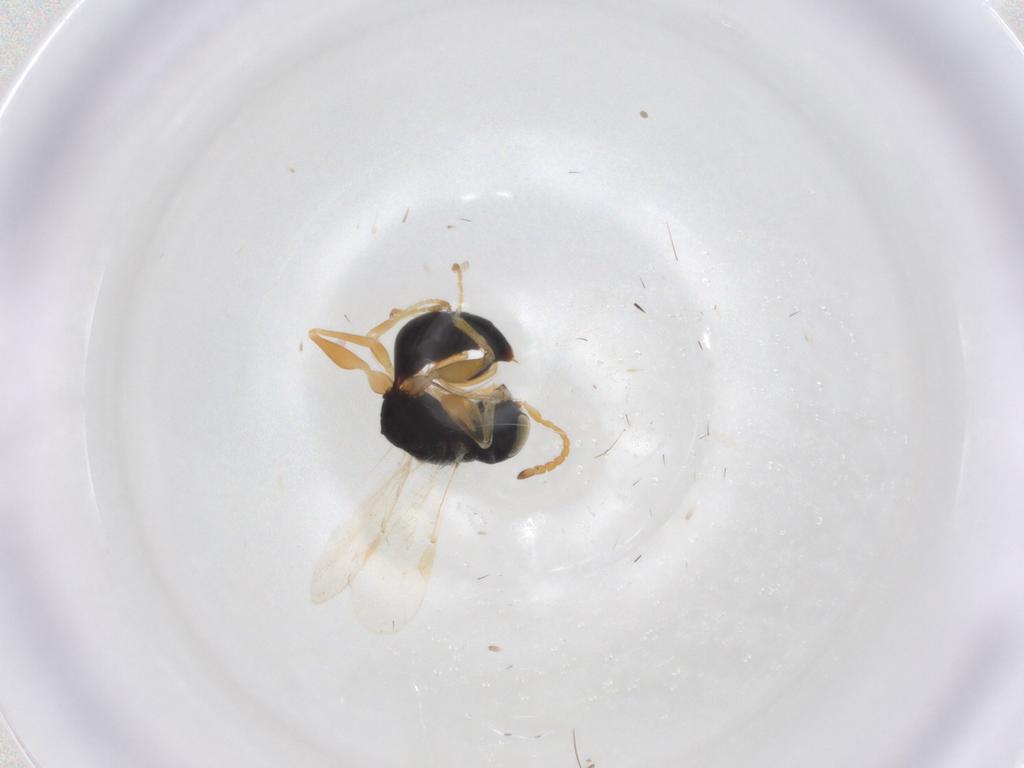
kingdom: Animalia
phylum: Arthropoda
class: Insecta
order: Hymenoptera
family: Dryinidae
